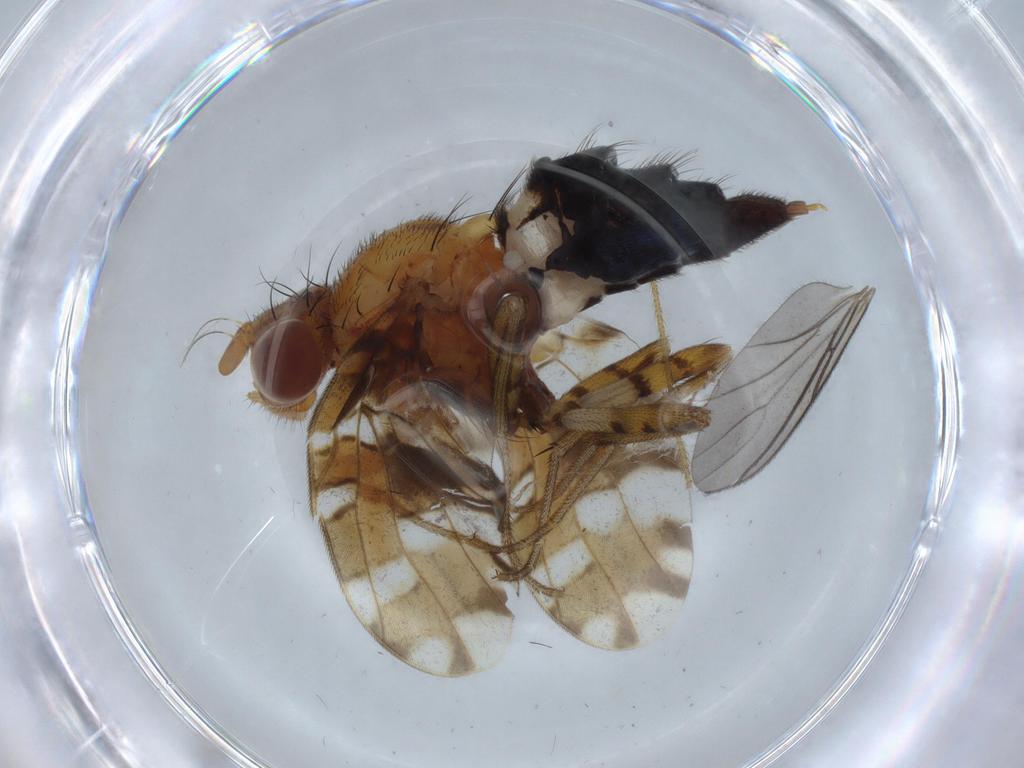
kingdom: Animalia
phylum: Arthropoda
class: Insecta
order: Diptera
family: Psychodidae
